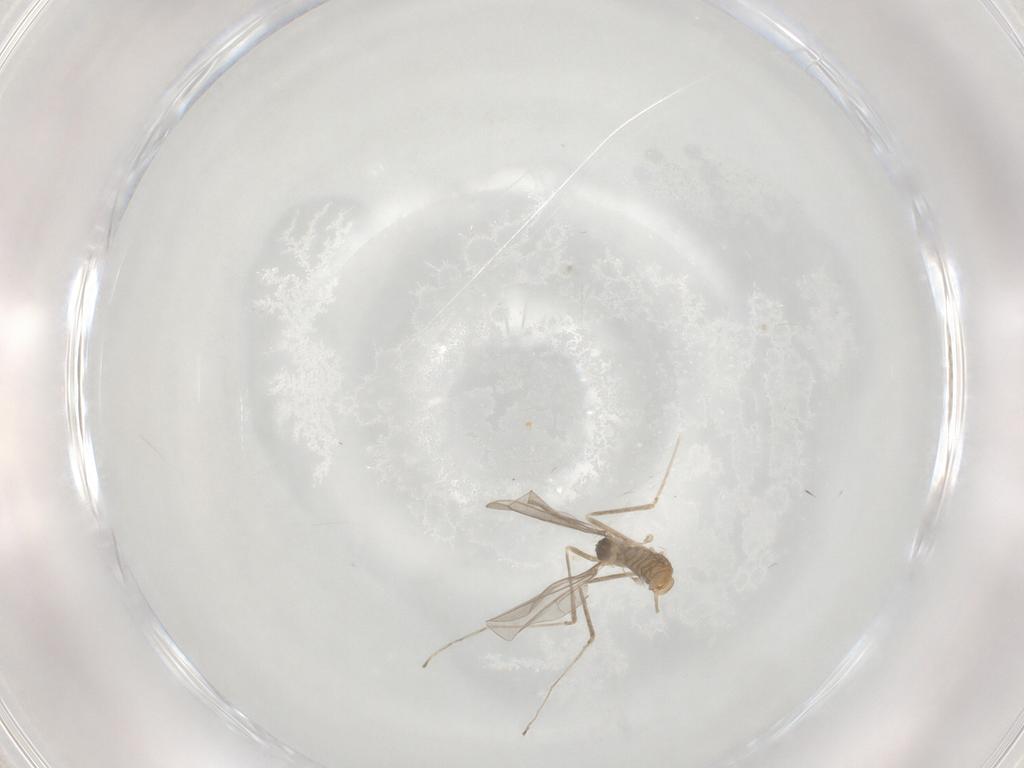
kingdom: Animalia
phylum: Arthropoda
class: Insecta
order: Diptera
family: Cecidomyiidae
